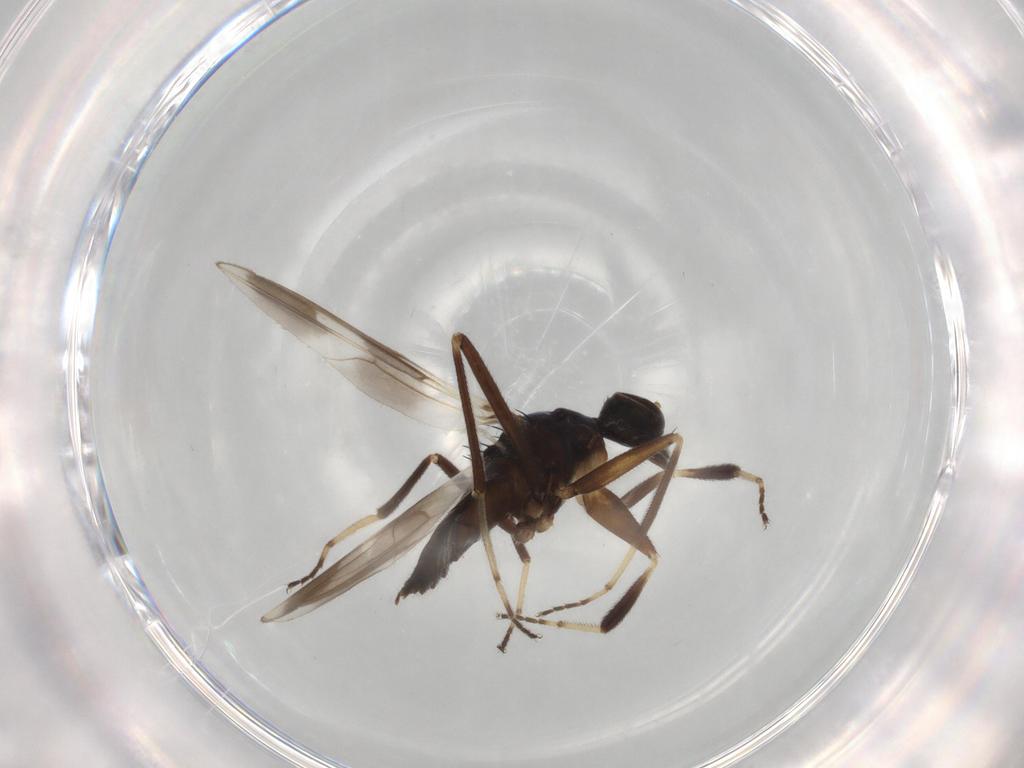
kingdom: Animalia
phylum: Arthropoda
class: Insecta
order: Diptera
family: Hybotidae
